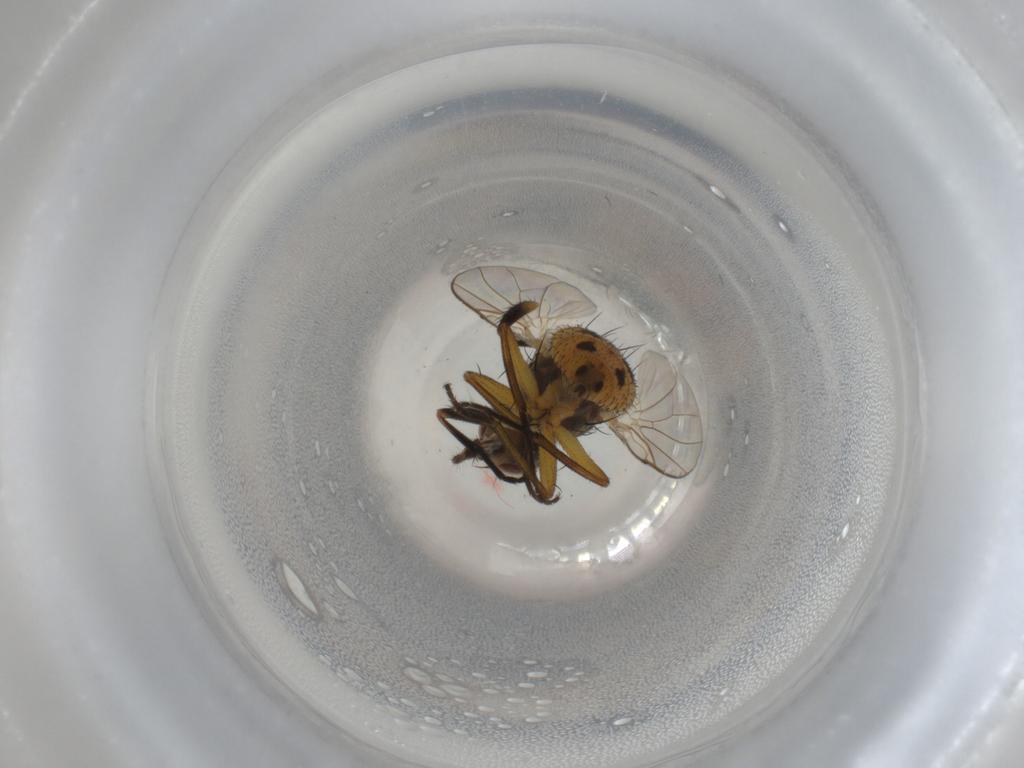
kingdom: Animalia
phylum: Arthropoda
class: Insecta
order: Diptera
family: Muscidae
